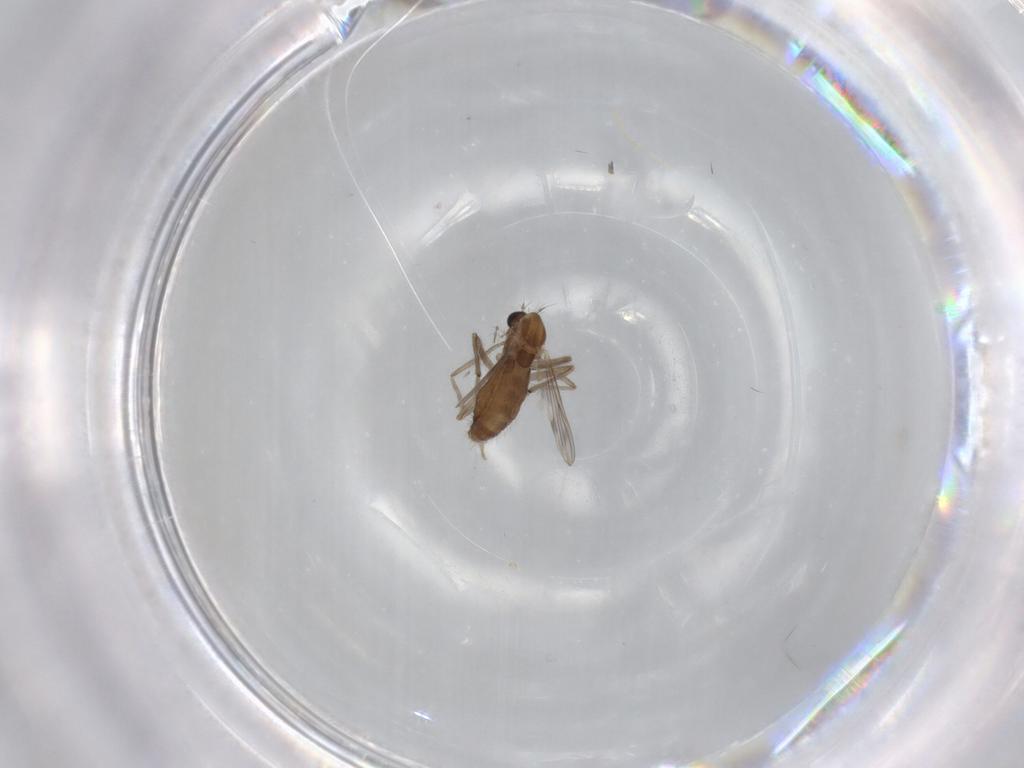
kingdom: Animalia
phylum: Arthropoda
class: Insecta
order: Diptera
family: Chironomidae
